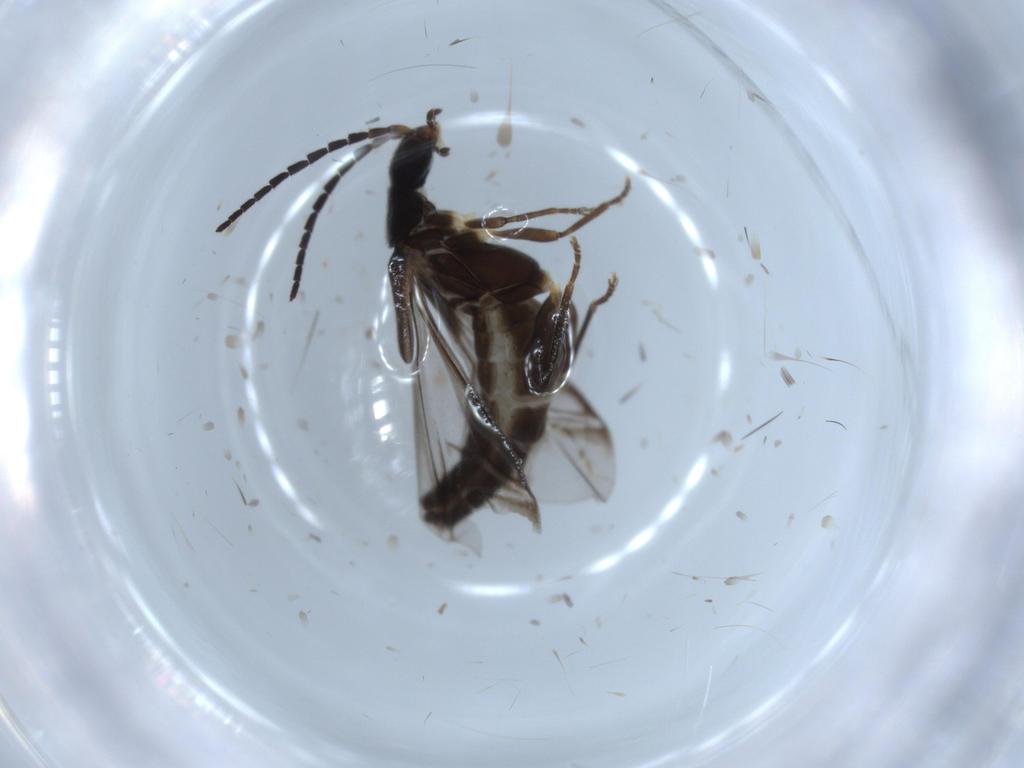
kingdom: Animalia
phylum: Arthropoda
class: Insecta
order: Coleoptera
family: Cantharidae
